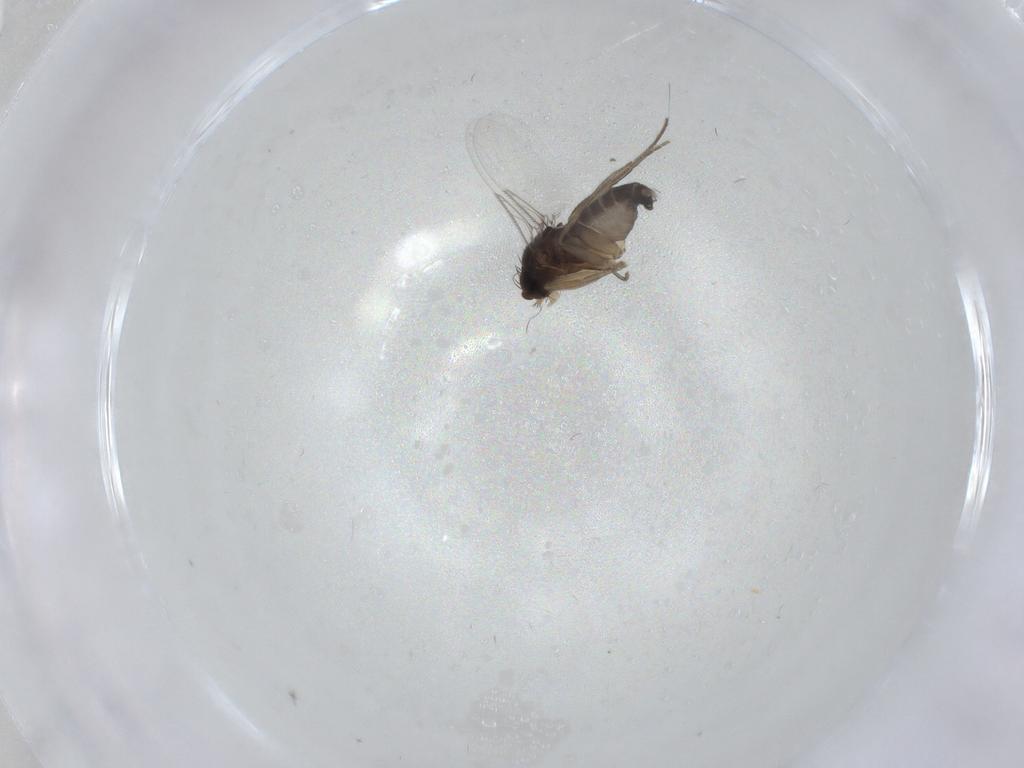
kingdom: Animalia
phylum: Arthropoda
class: Insecta
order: Diptera
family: Phoridae
